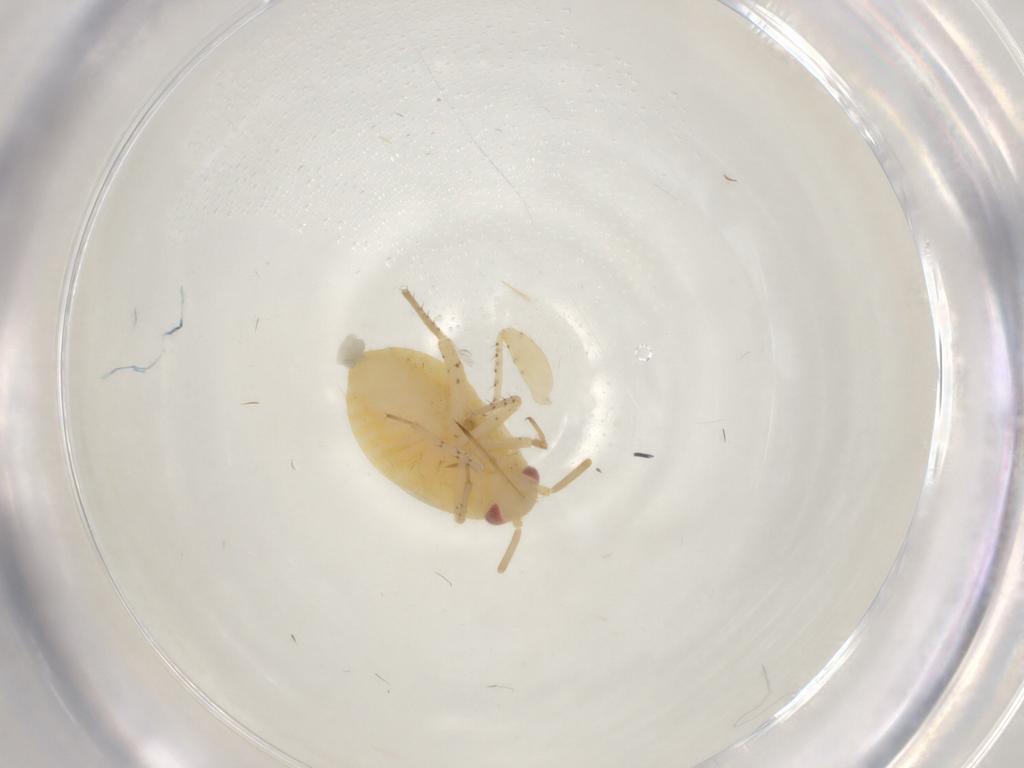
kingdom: Animalia
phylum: Arthropoda
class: Insecta
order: Hymenoptera
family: Braconidae
